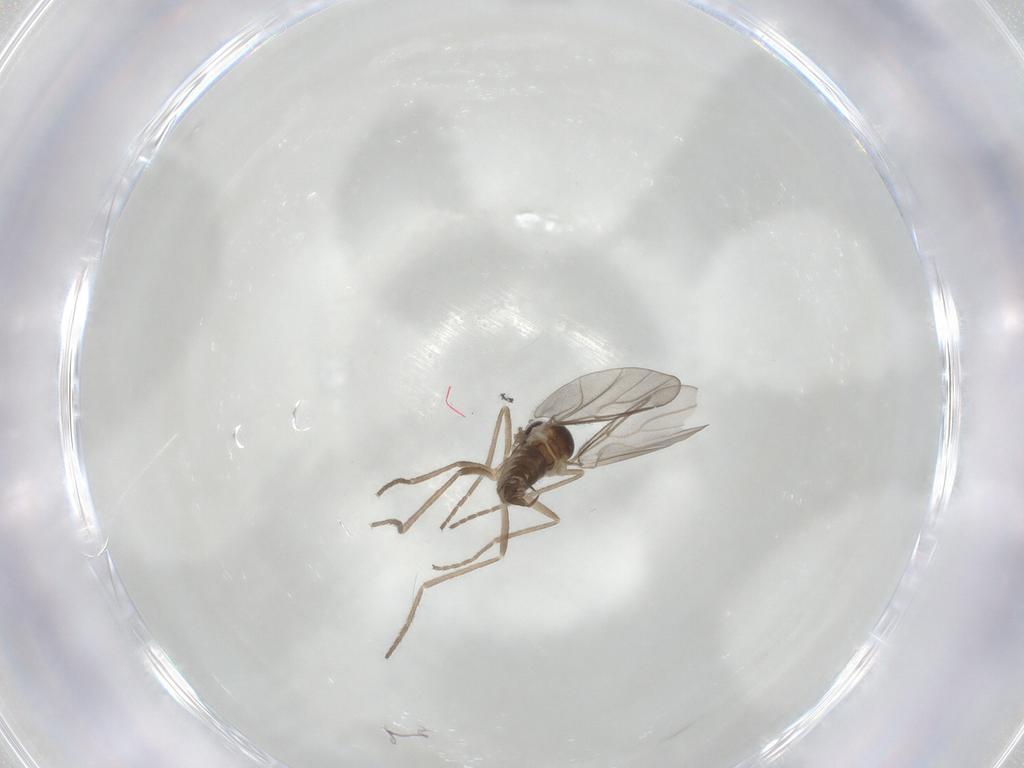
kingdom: Animalia
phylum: Arthropoda
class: Insecta
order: Diptera
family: Cecidomyiidae
